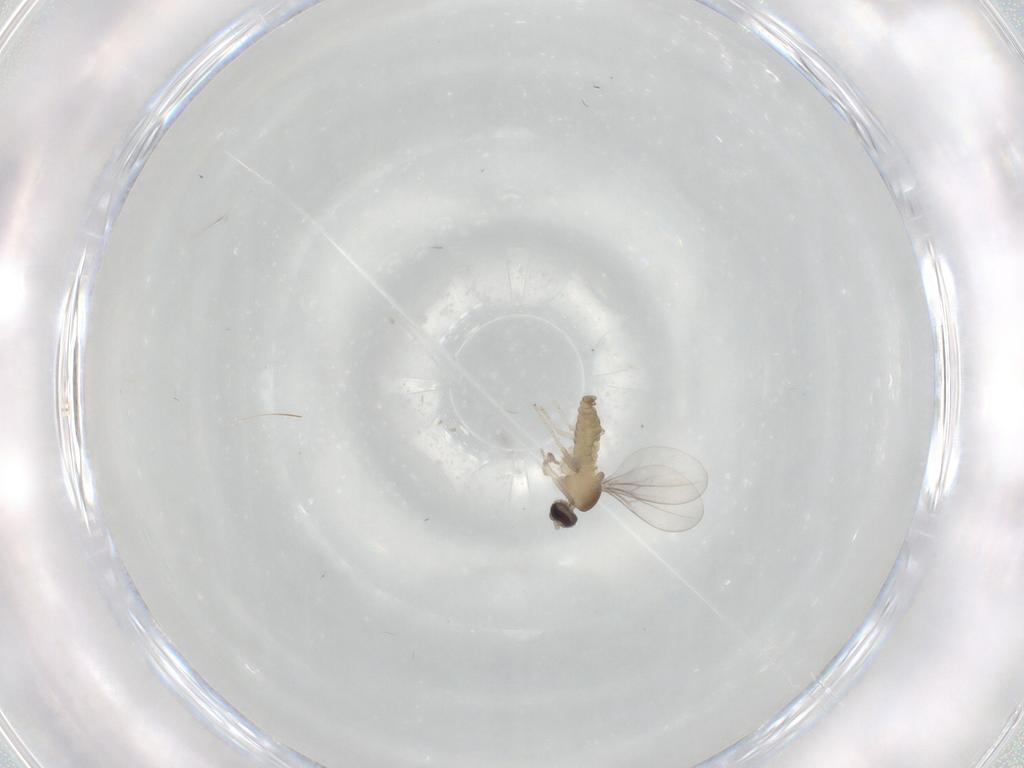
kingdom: Animalia
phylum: Arthropoda
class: Insecta
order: Diptera
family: Cecidomyiidae
